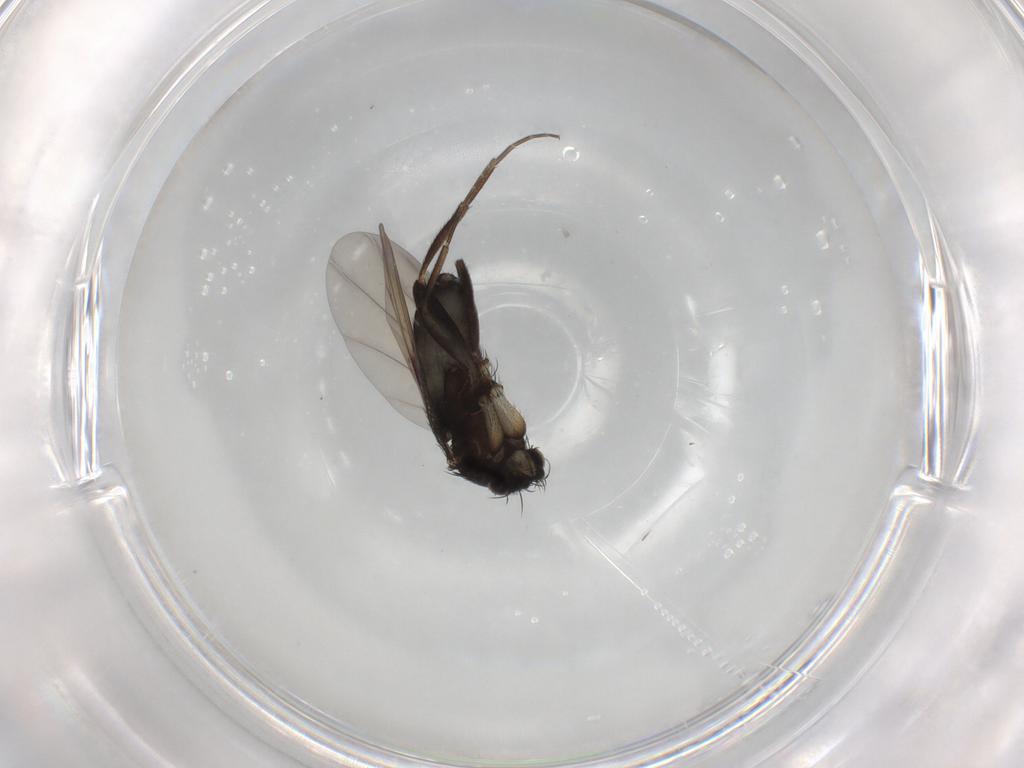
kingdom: Animalia
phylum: Arthropoda
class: Insecta
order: Diptera
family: Phoridae
